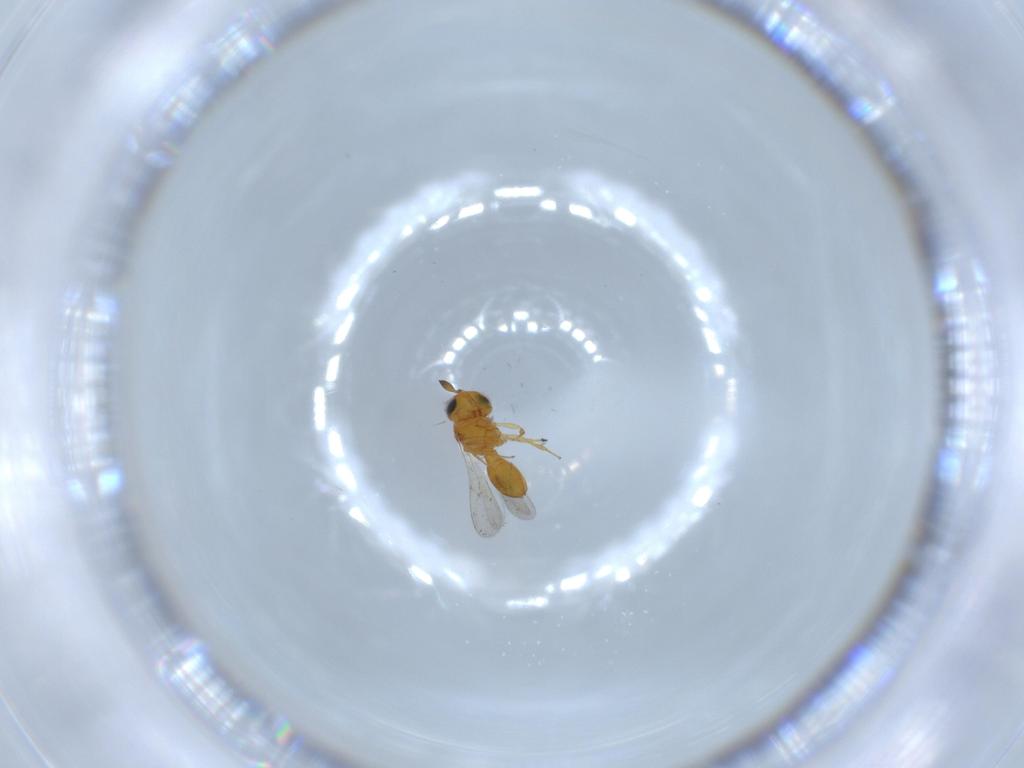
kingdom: Animalia
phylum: Arthropoda
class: Insecta
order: Hymenoptera
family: Scelionidae
